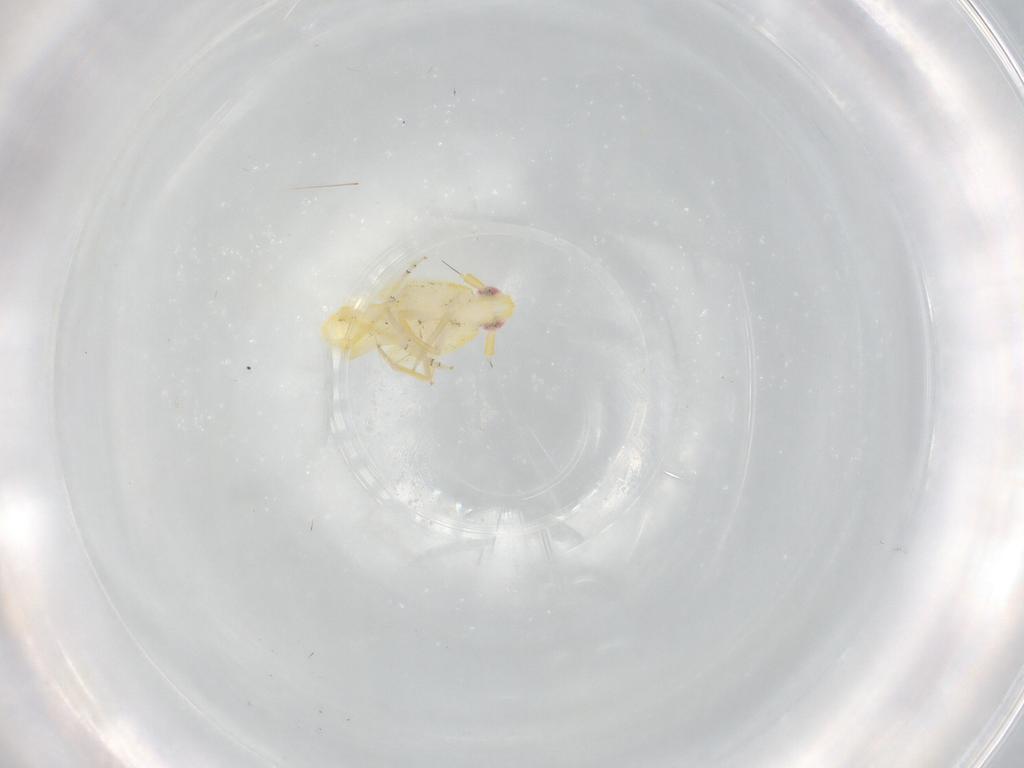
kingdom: Animalia
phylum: Arthropoda
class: Insecta
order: Hemiptera
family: Delphacidae
